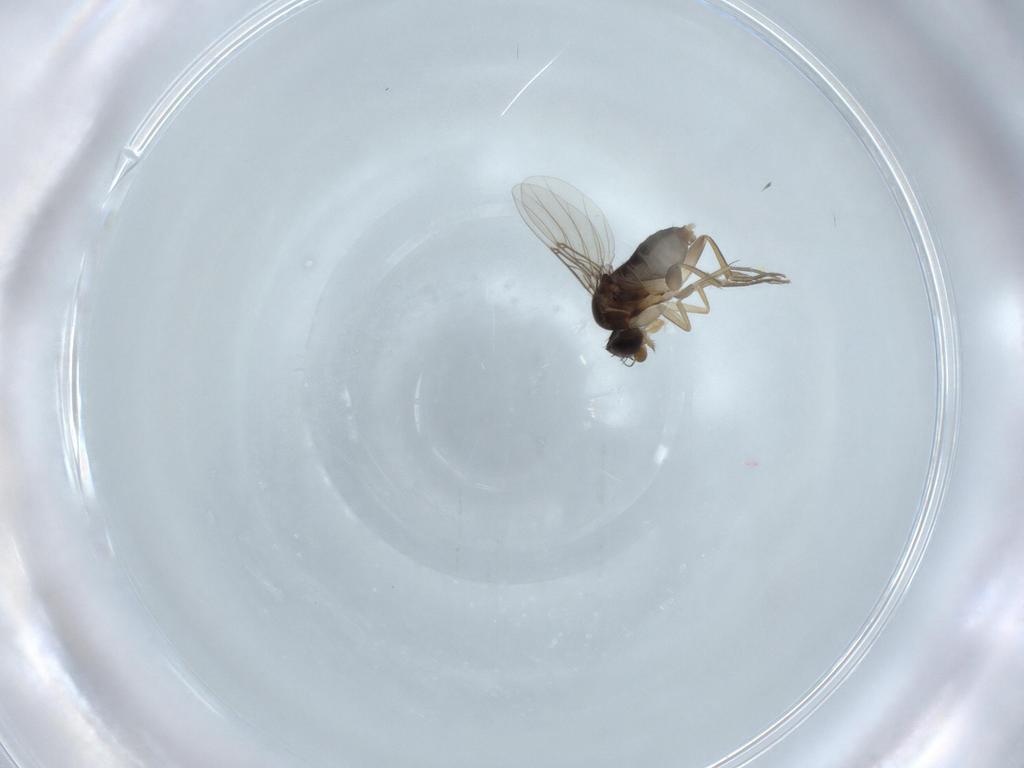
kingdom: Animalia
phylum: Arthropoda
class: Insecta
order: Diptera
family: Phoridae
